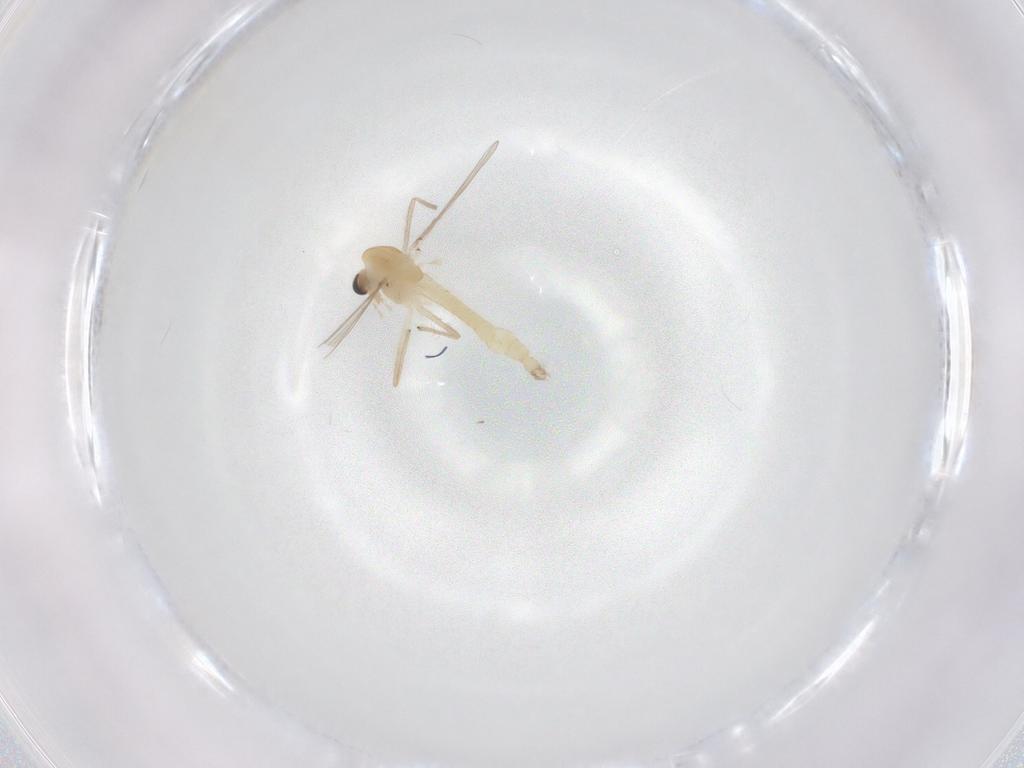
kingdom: Animalia
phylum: Arthropoda
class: Insecta
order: Diptera
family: Chironomidae
